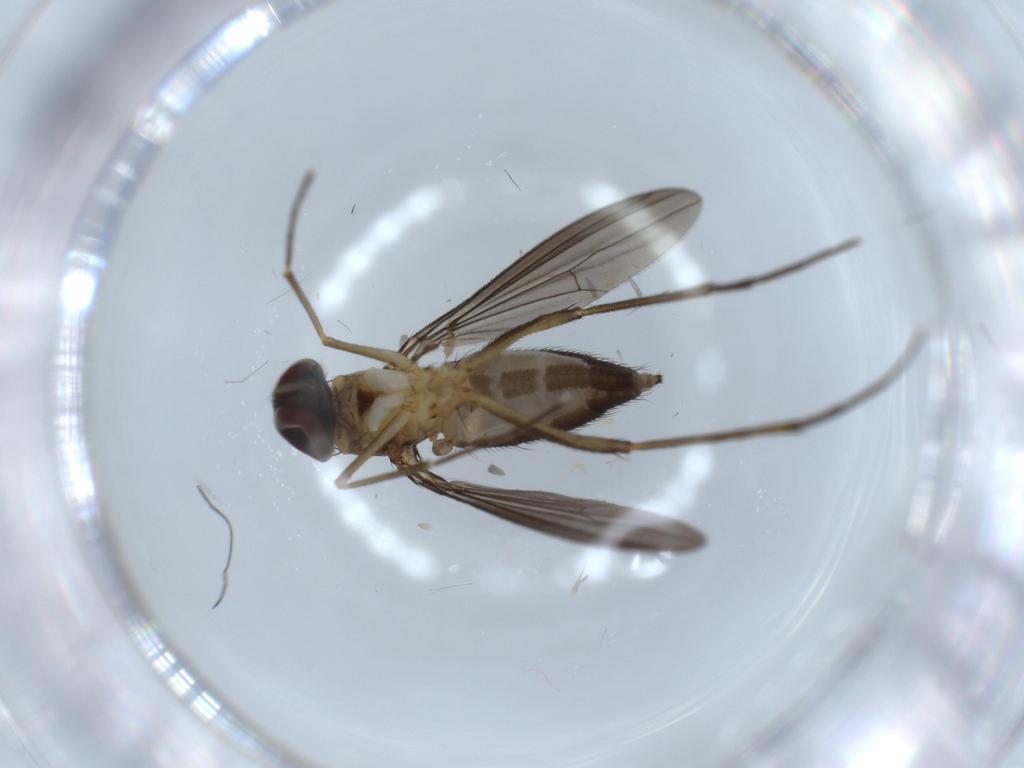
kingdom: Animalia
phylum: Arthropoda
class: Insecta
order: Diptera
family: Dolichopodidae
